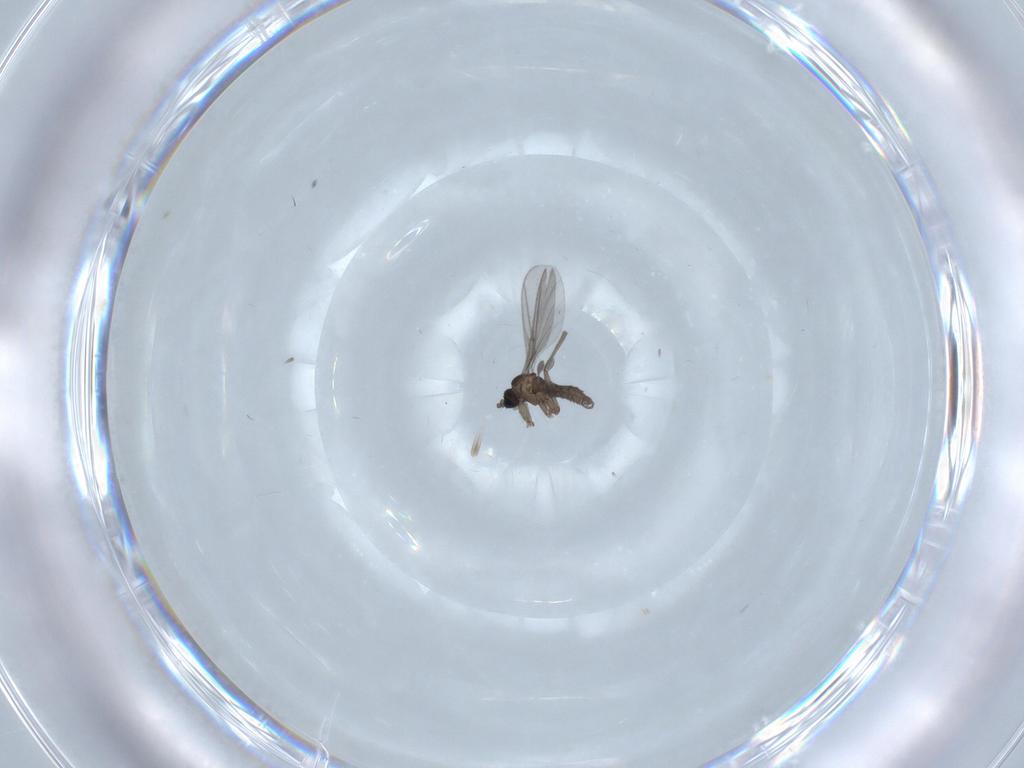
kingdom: Animalia
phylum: Arthropoda
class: Insecta
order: Diptera
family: Sciaridae
